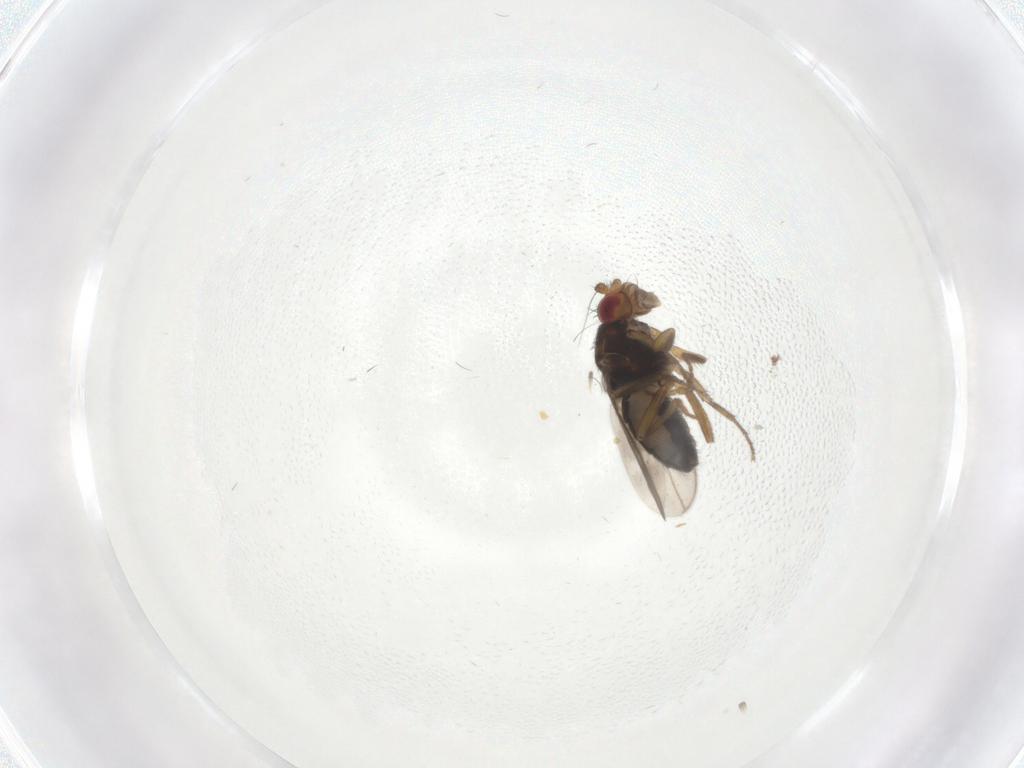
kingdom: Animalia
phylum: Arthropoda
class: Insecta
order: Diptera
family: Sphaeroceridae
